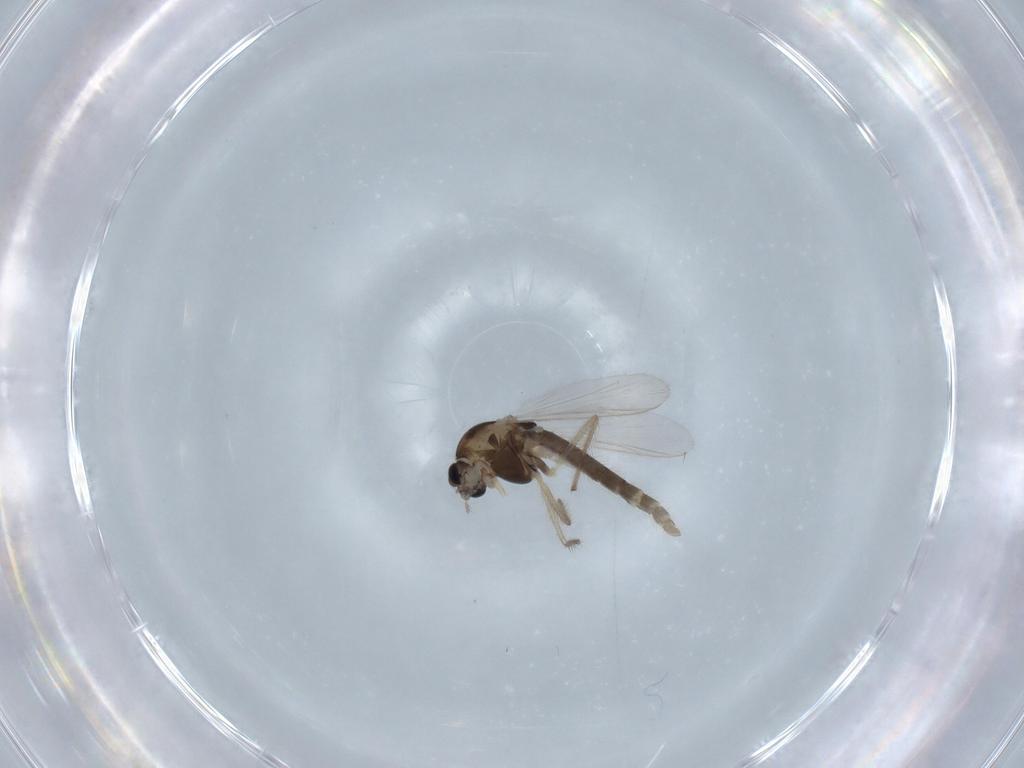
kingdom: Animalia
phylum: Arthropoda
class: Insecta
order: Diptera
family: Chironomidae
